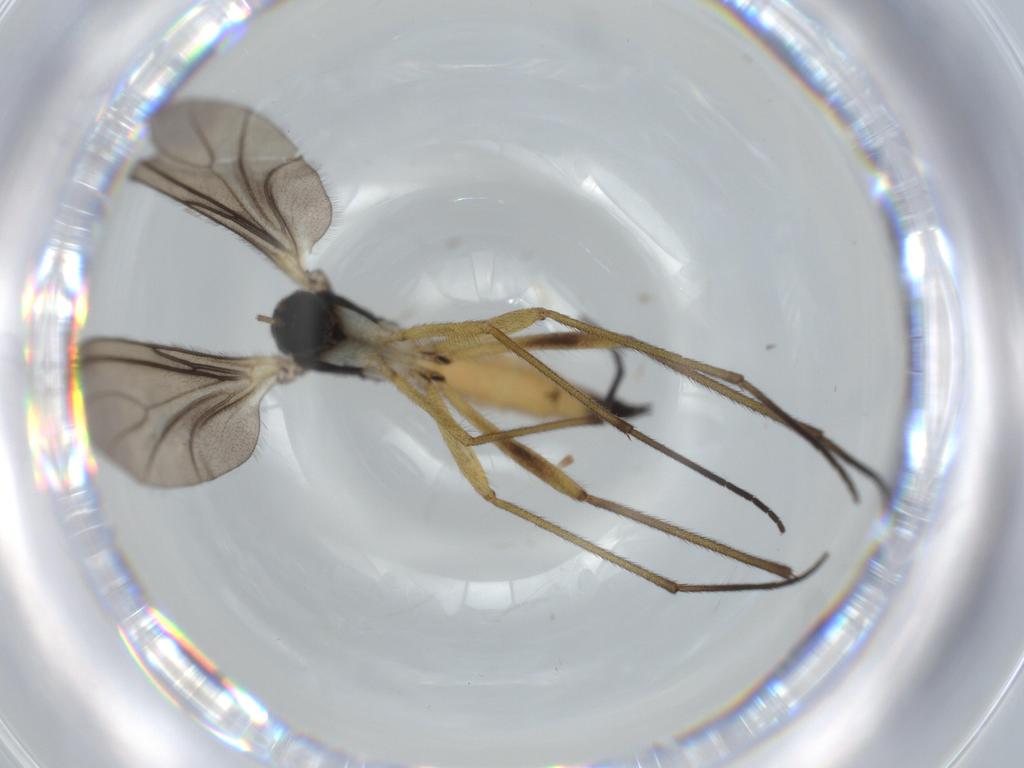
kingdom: Animalia
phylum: Arthropoda
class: Insecta
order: Diptera
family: Sciaridae
